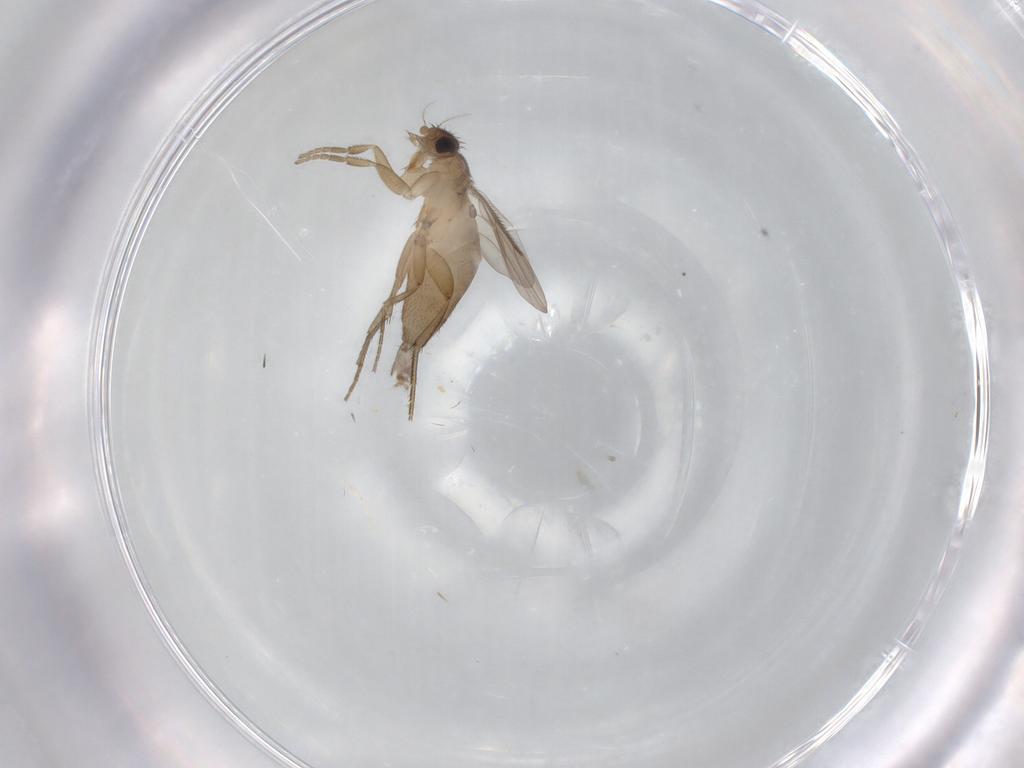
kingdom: Animalia
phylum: Arthropoda
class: Insecta
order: Diptera
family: Phoridae
